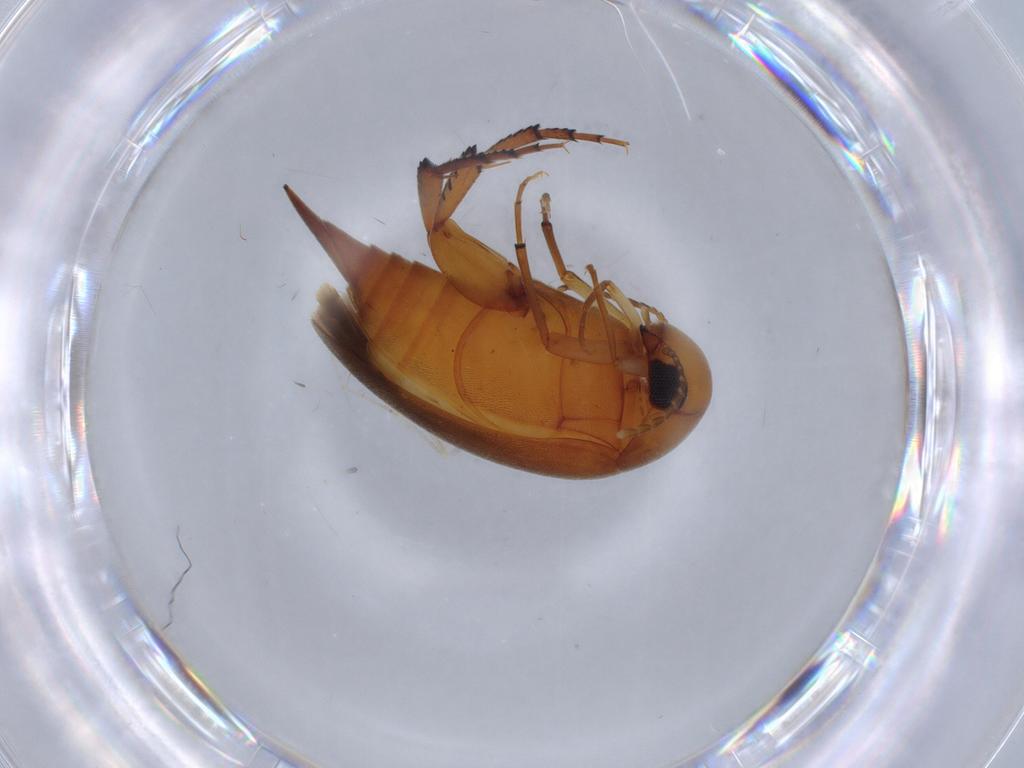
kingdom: Animalia
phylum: Arthropoda
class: Insecta
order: Coleoptera
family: Mordellidae
